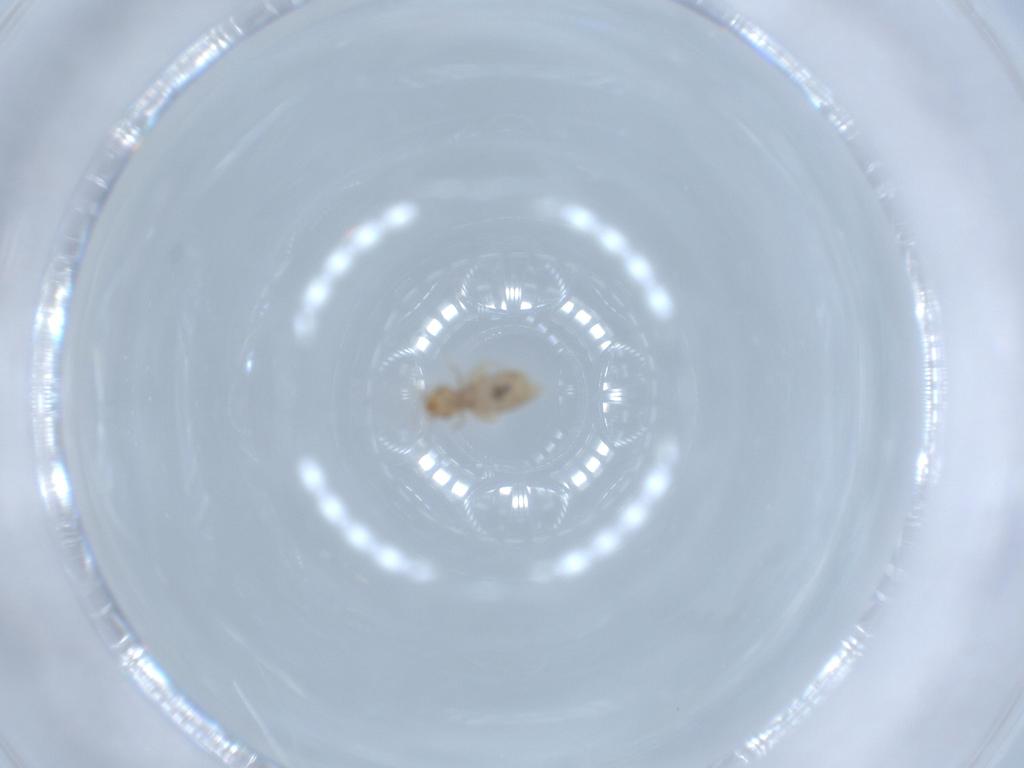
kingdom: Animalia
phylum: Arthropoda
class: Insecta
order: Psocodea
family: Liposcelididae
